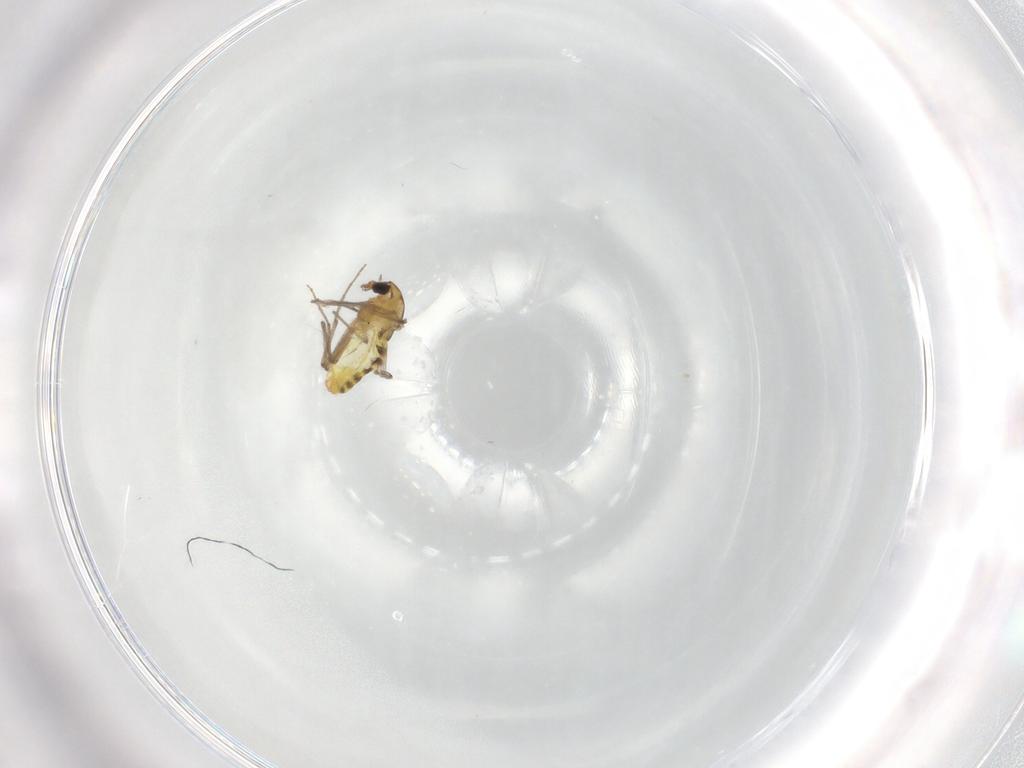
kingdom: Animalia
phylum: Arthropoda
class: Insecta
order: Diptera
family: Chironomidae
